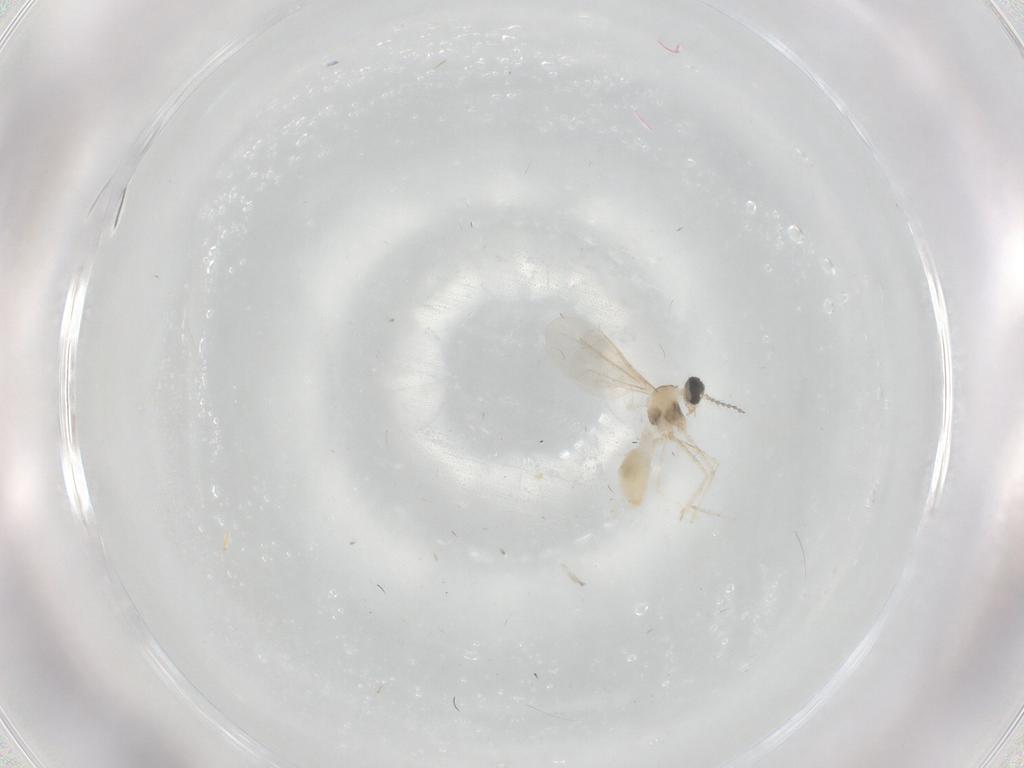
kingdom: Animalia
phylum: Arthropoda
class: Insecta
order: Diptera
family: Cecidomyiidae
